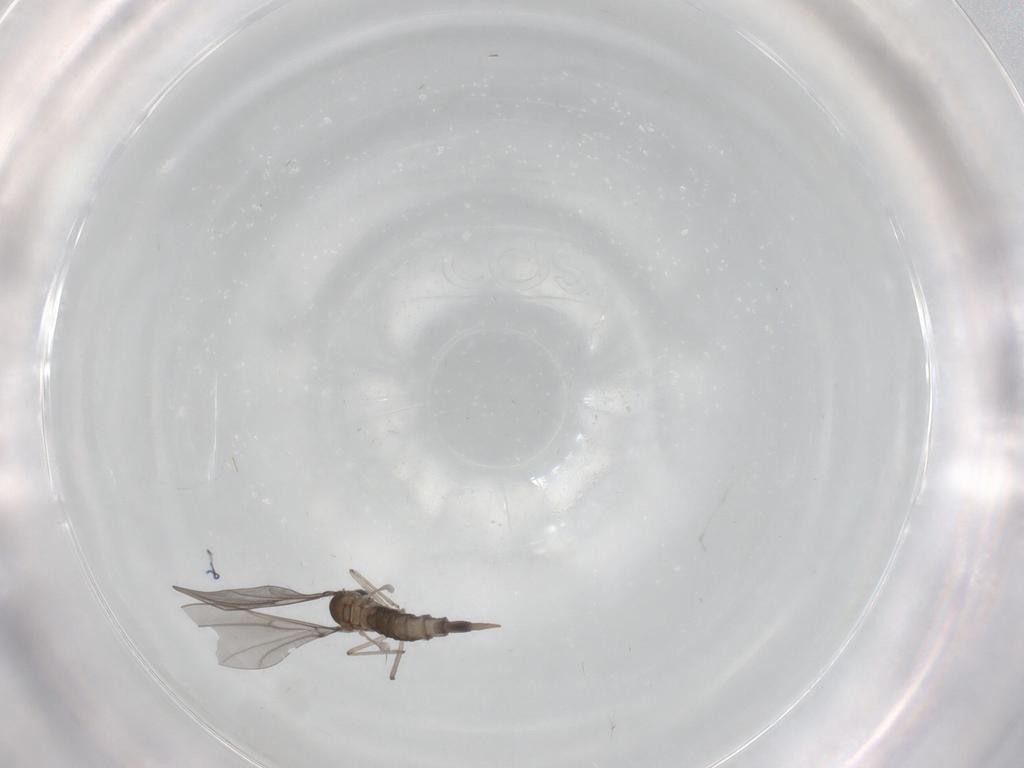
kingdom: Animalia
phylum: Arthropoda
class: Insecta
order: Diptera
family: Cecidomyiidae
